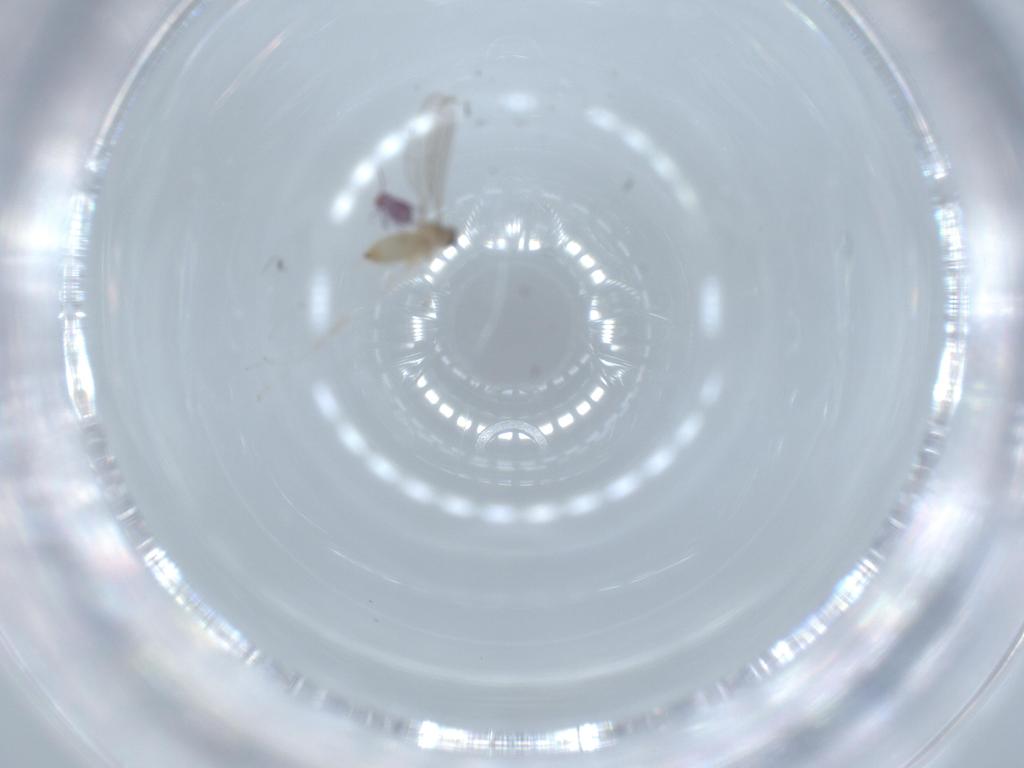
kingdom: Animalia
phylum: Arthropoda
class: Insecta
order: Diptera
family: Cecidomyiidae
